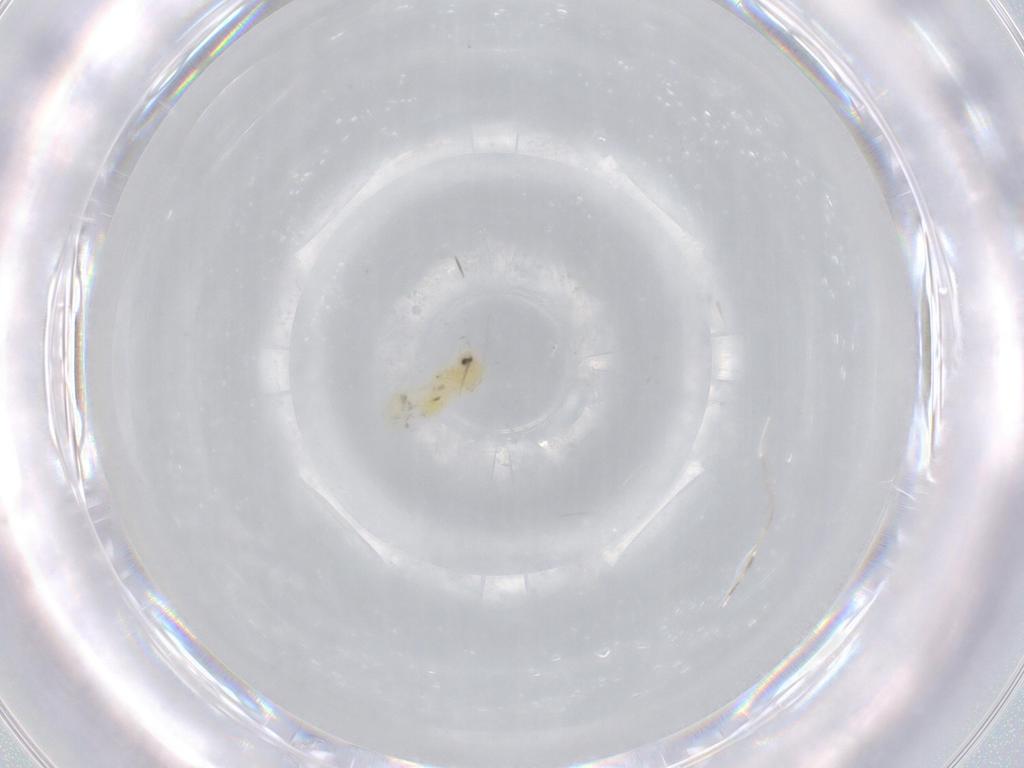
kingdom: Animalia
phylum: Arthropoda
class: Insecta
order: Hemiptera
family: Aleyrodidae
